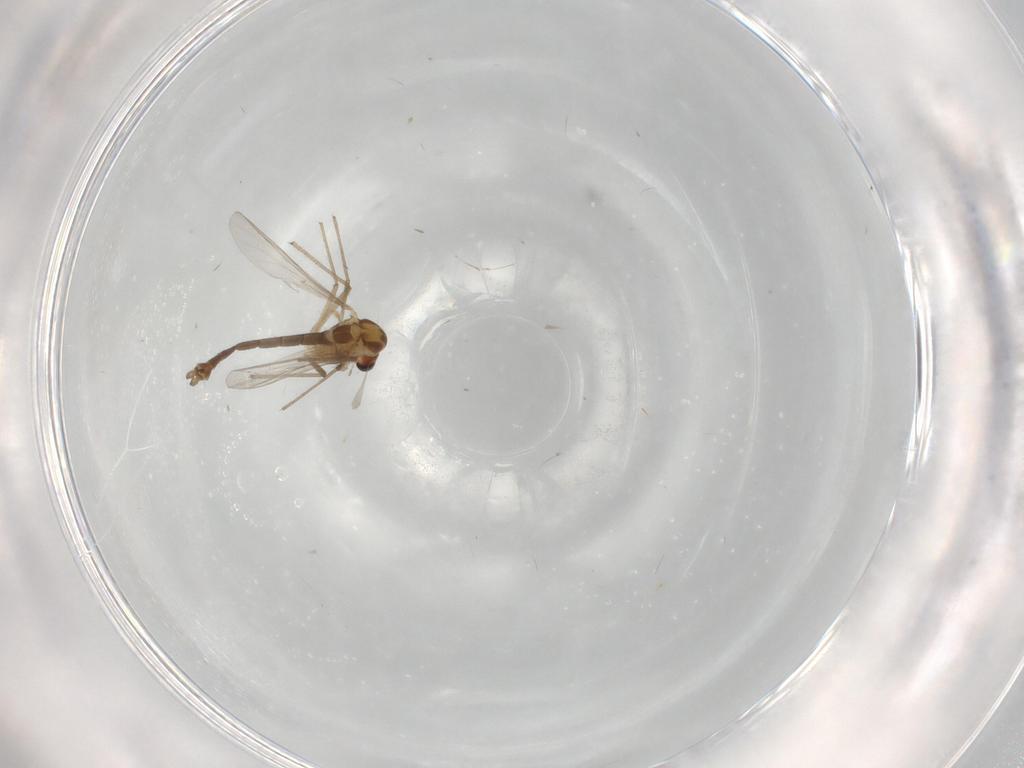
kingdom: Animalia
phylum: Arthropoda
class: Insecta
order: Diptera
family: Chironomidae
